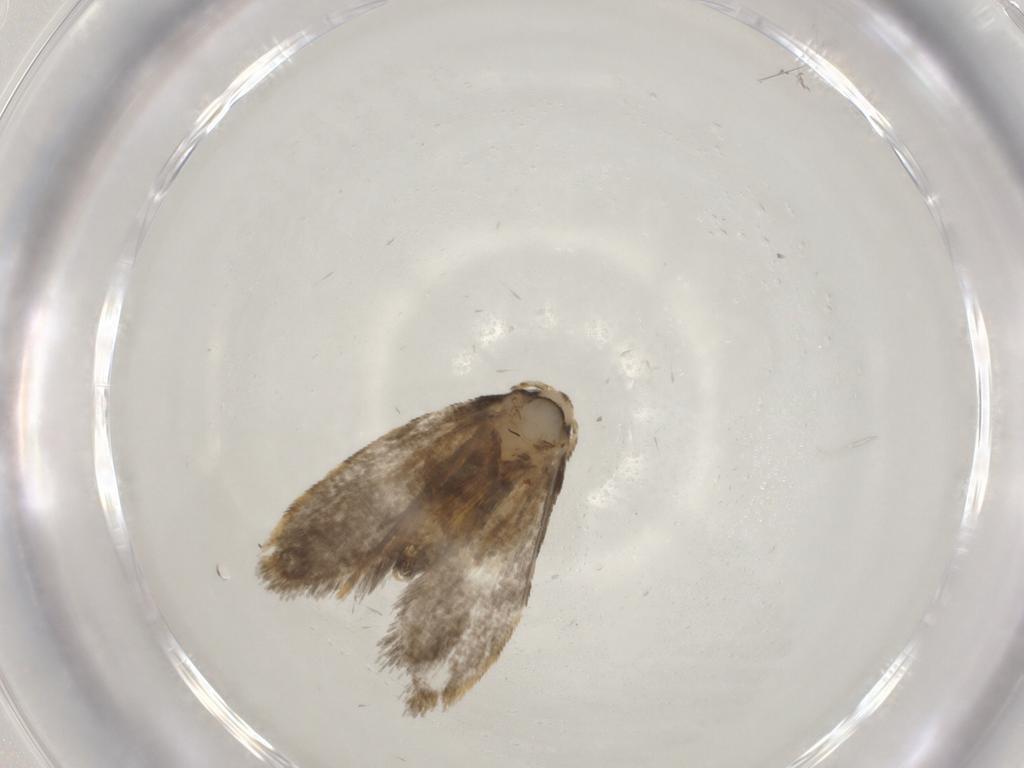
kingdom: Animalia
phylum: Arthropoda
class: Insecta
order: Lepidoptera
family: Psychidae
